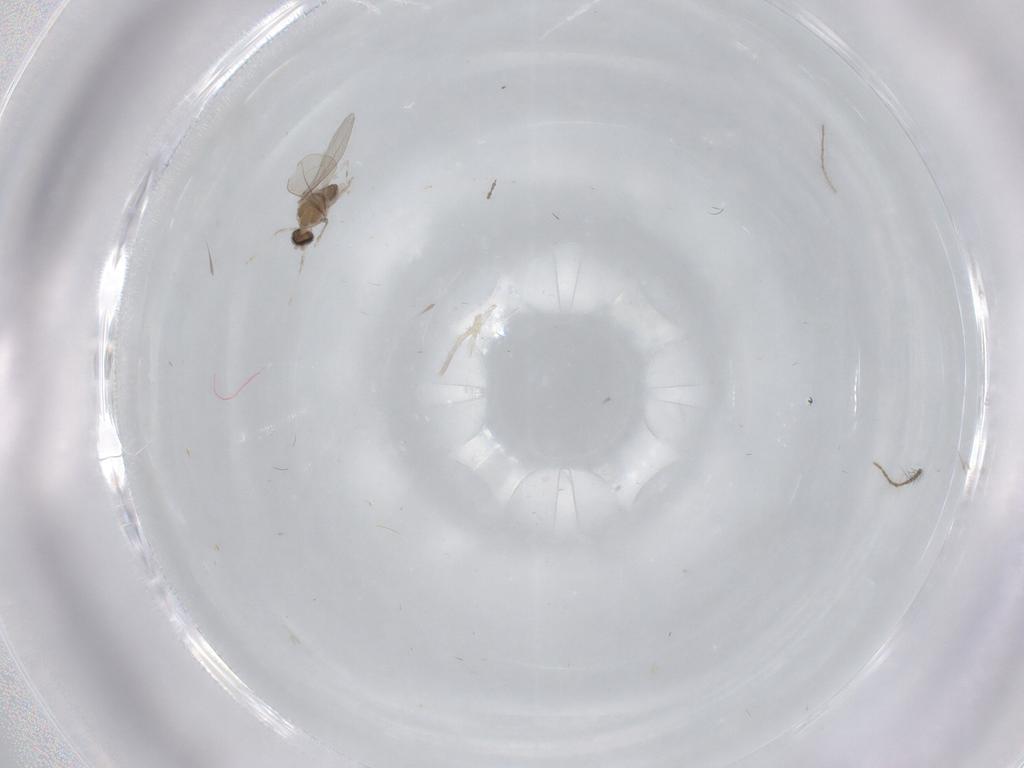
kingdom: Animalia
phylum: Arthropoda
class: Insecta
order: Diptera
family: Cecidomyiidae
